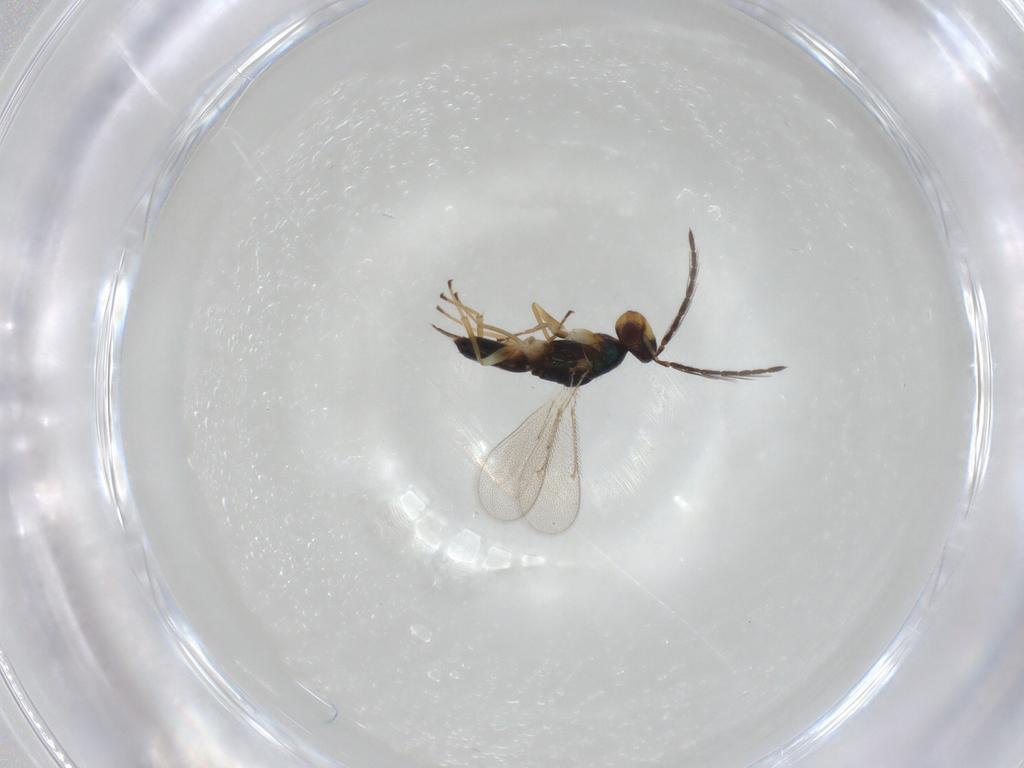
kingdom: Animalia
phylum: Arthropoda
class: Insecta
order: Hymenoptera
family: Eulophidae
